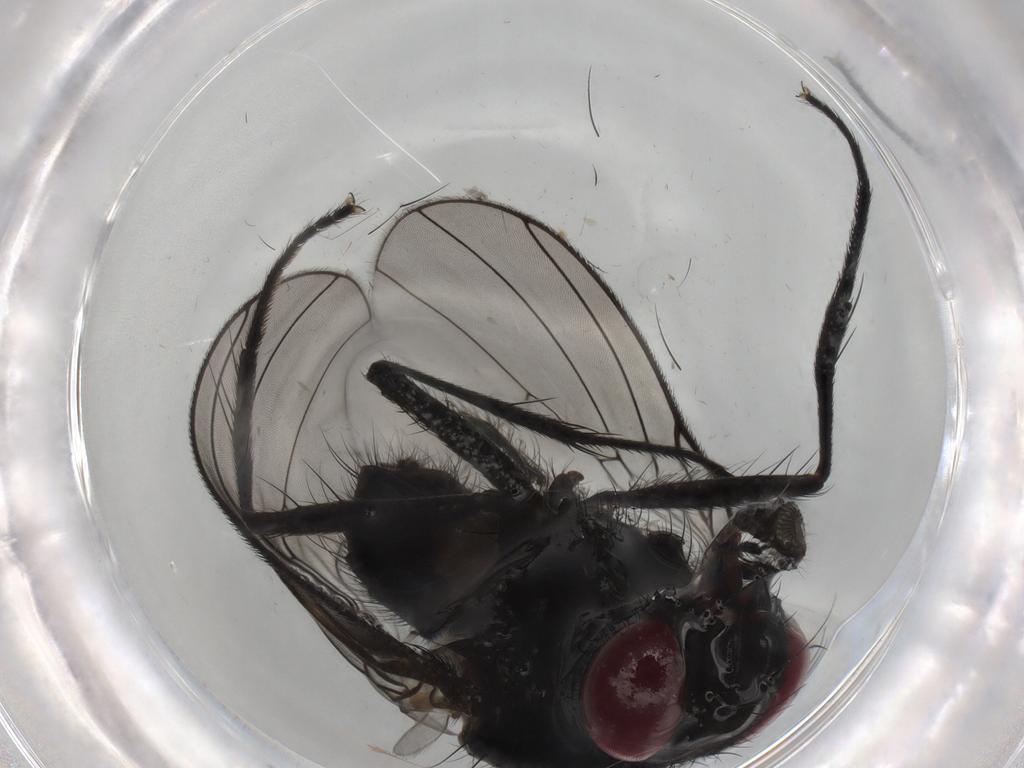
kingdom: Animalia
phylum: Arthropoda
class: Insecta
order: Diptera
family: Fannia
